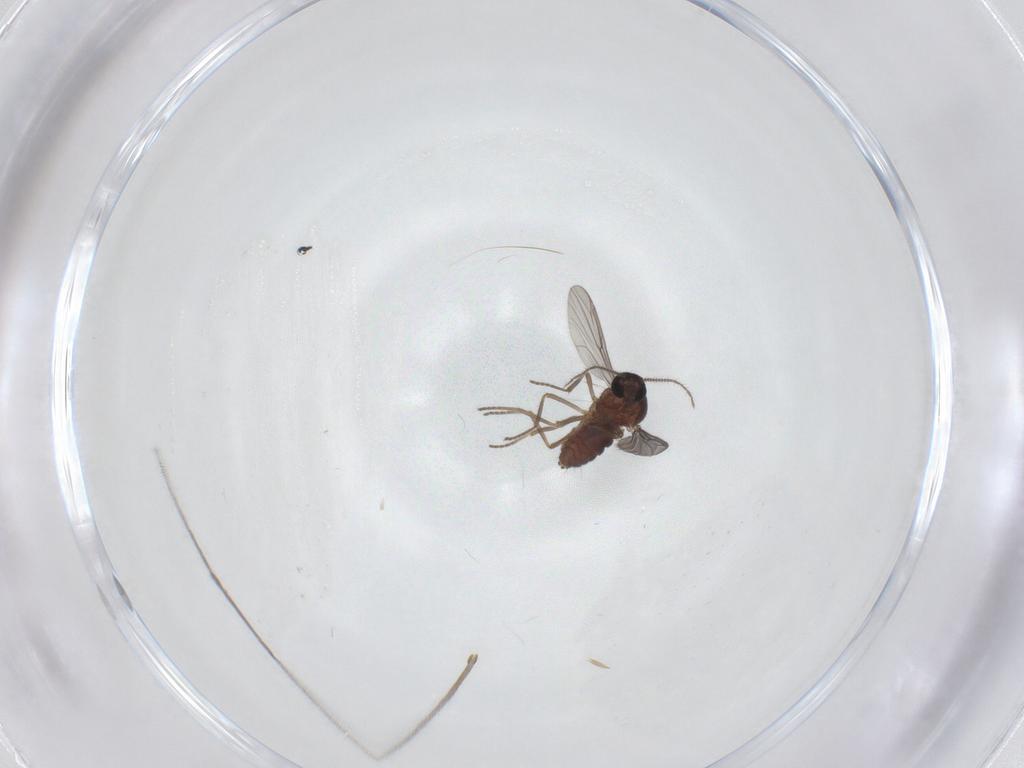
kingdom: Animalia
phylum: Arthropoda
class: Insecta
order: Diptera
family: Ceratopogonidae
